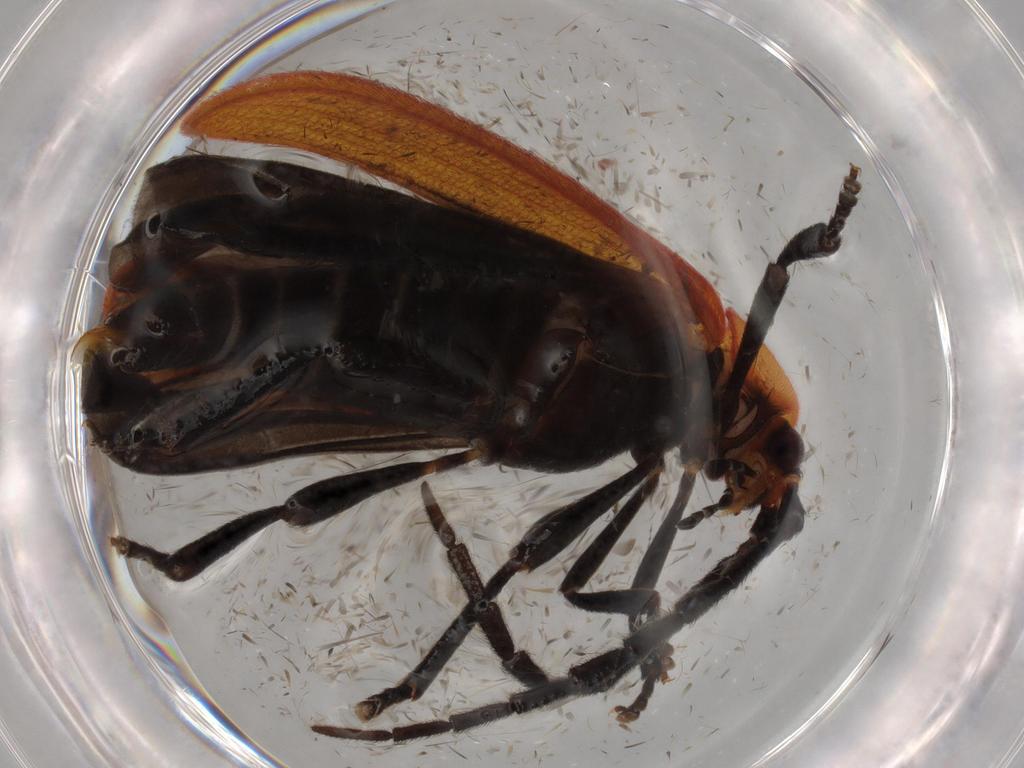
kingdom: Animalia
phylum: Arthropoda
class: Insecta
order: Coleoptera
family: Chrysomelidae
